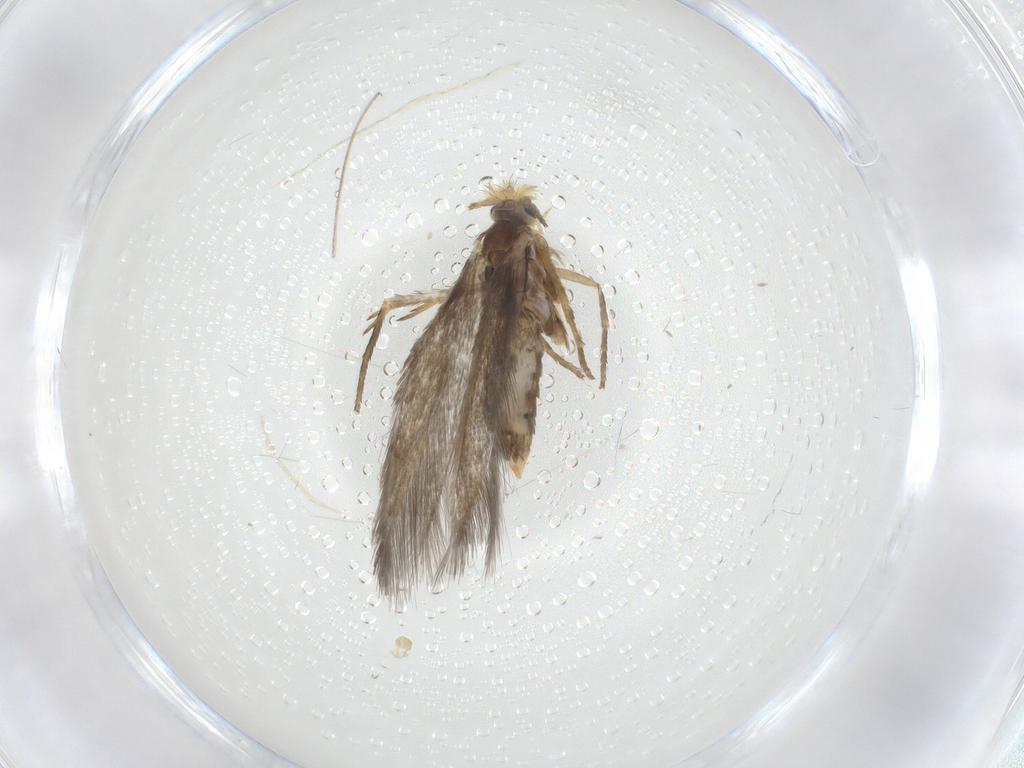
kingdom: Animalia
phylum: Arthropoda
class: Insecta
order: Lepidoptera
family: Nepticulidae
